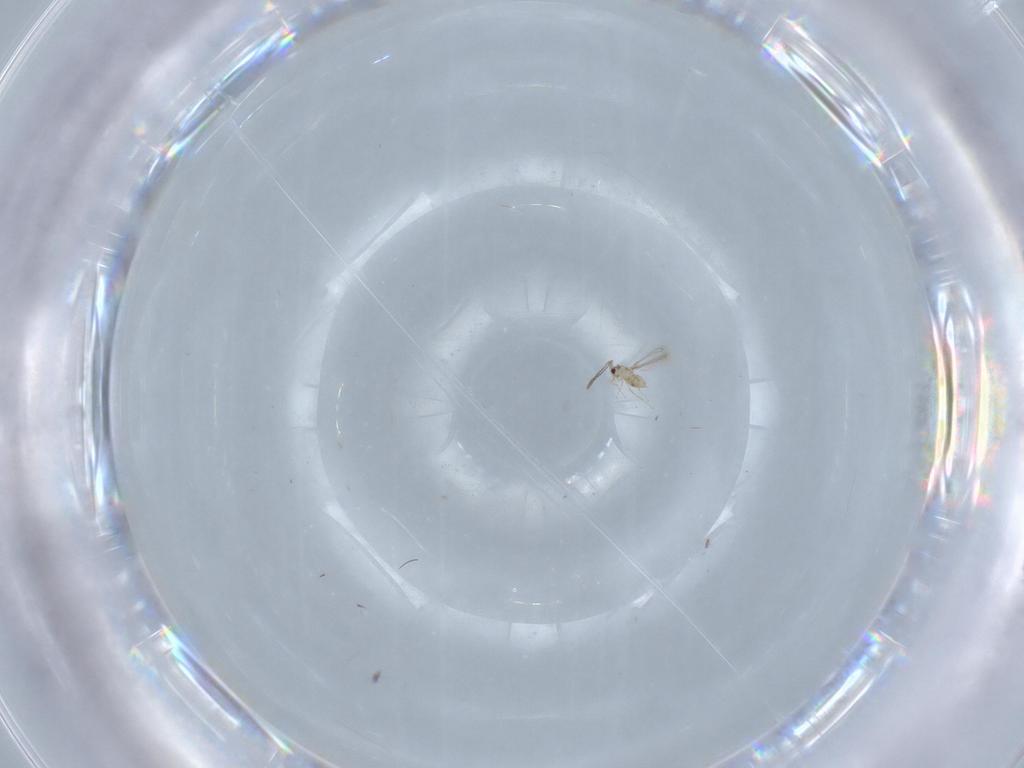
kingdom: Animalia
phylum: Arthropoda
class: Insecta
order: Hymenoptera
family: Mymaridae
